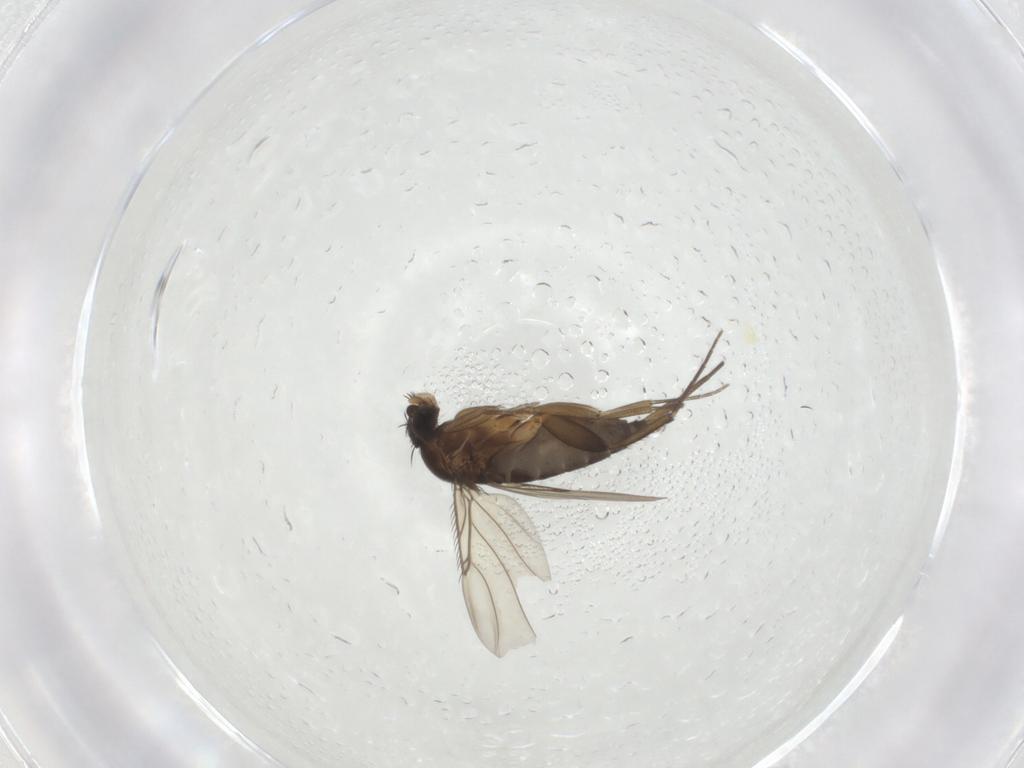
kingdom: Animalia
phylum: Arthropoda
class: Insecta
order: Diptera
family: Phoridae
